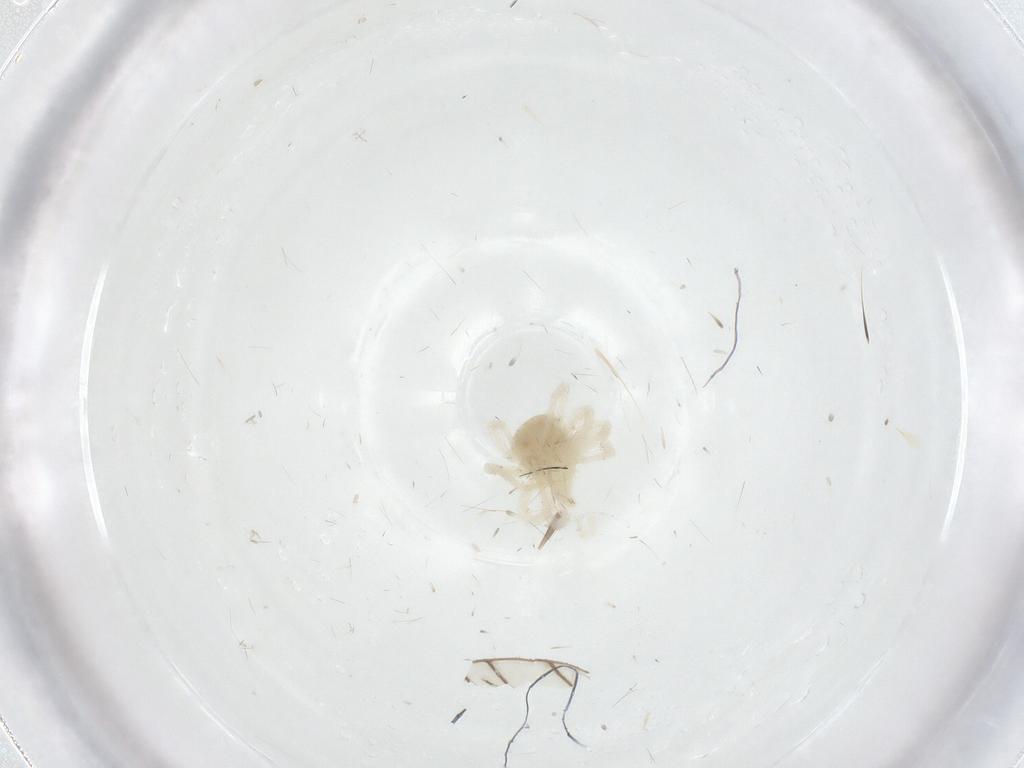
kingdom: Animalia
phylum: Arthropoda
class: Arachnida
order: Trombidiformes
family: Anystidae
